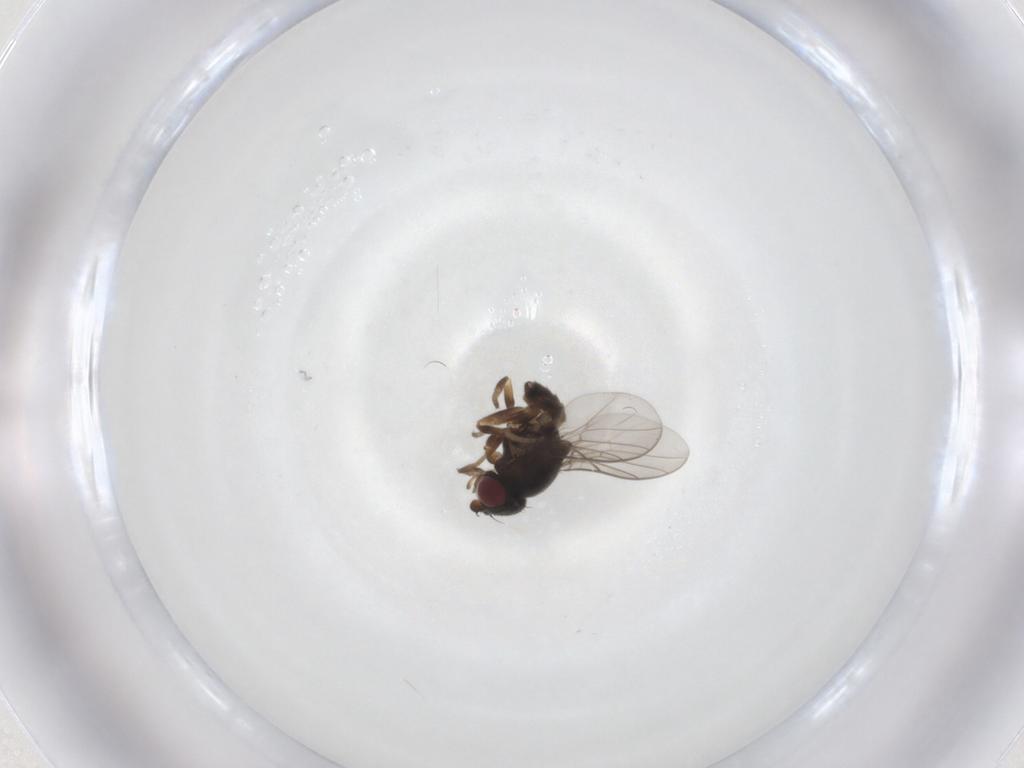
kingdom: Animalia
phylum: Arthropoda
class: Insecta
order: Diptera
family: Chloropidae
